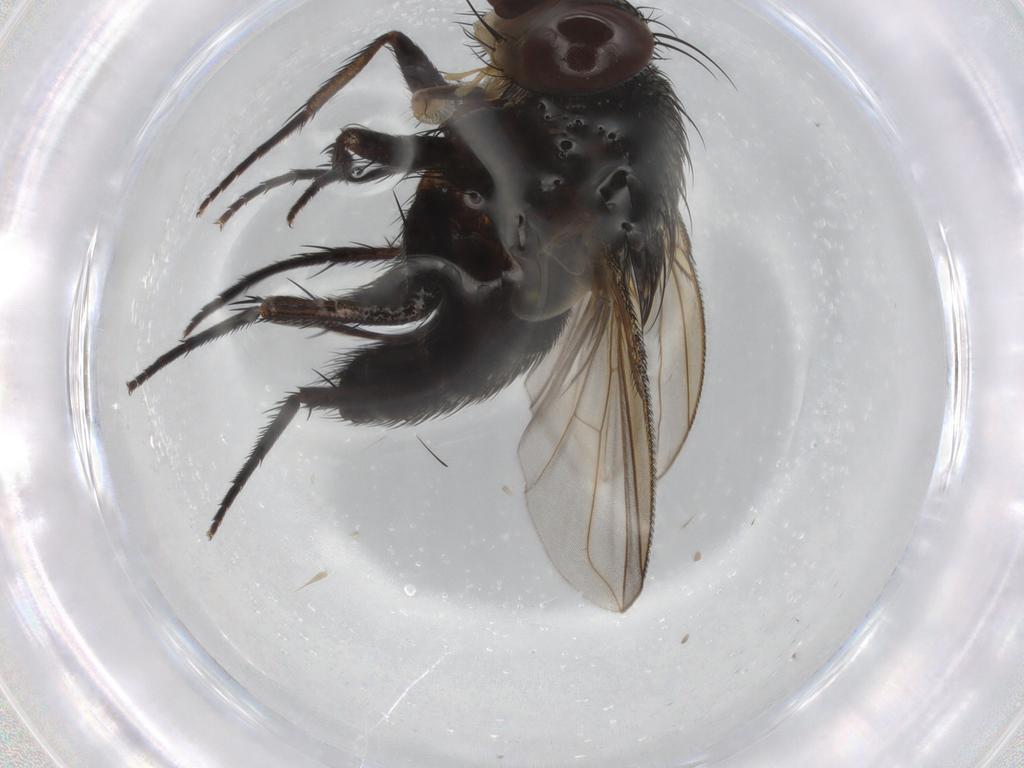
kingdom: Animalia
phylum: Arthropoda
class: Insecta
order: Diptera
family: Tachinidae
